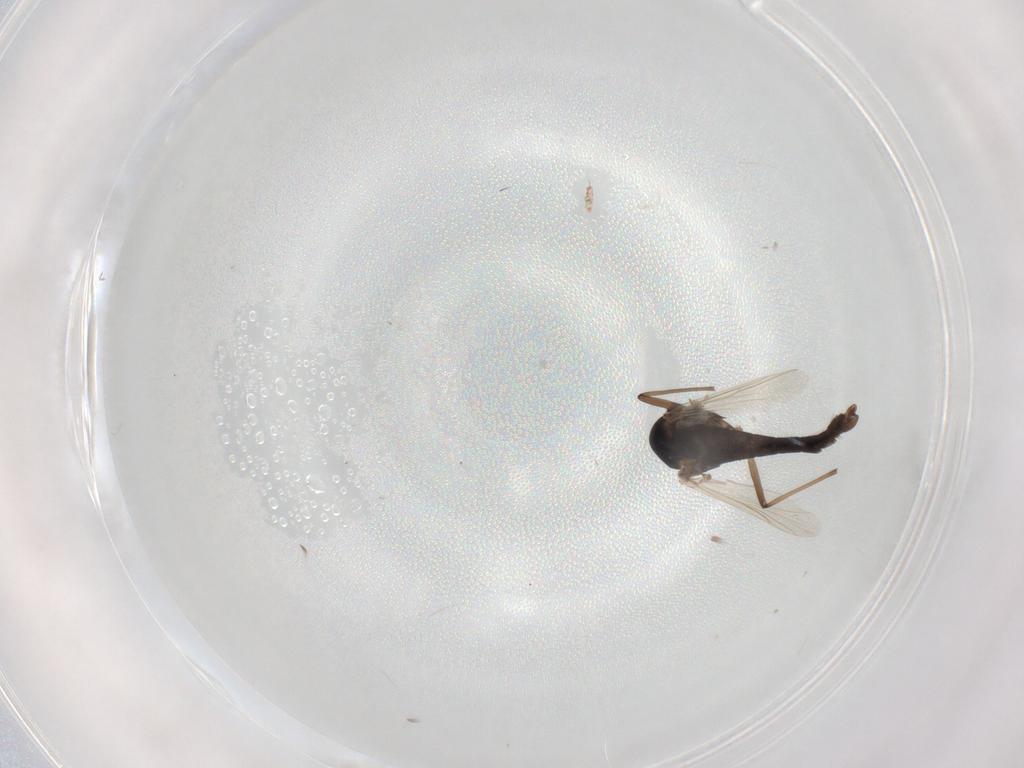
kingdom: Animalia
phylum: Arthropoda
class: Insecta
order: Diptera
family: Chironomidae
